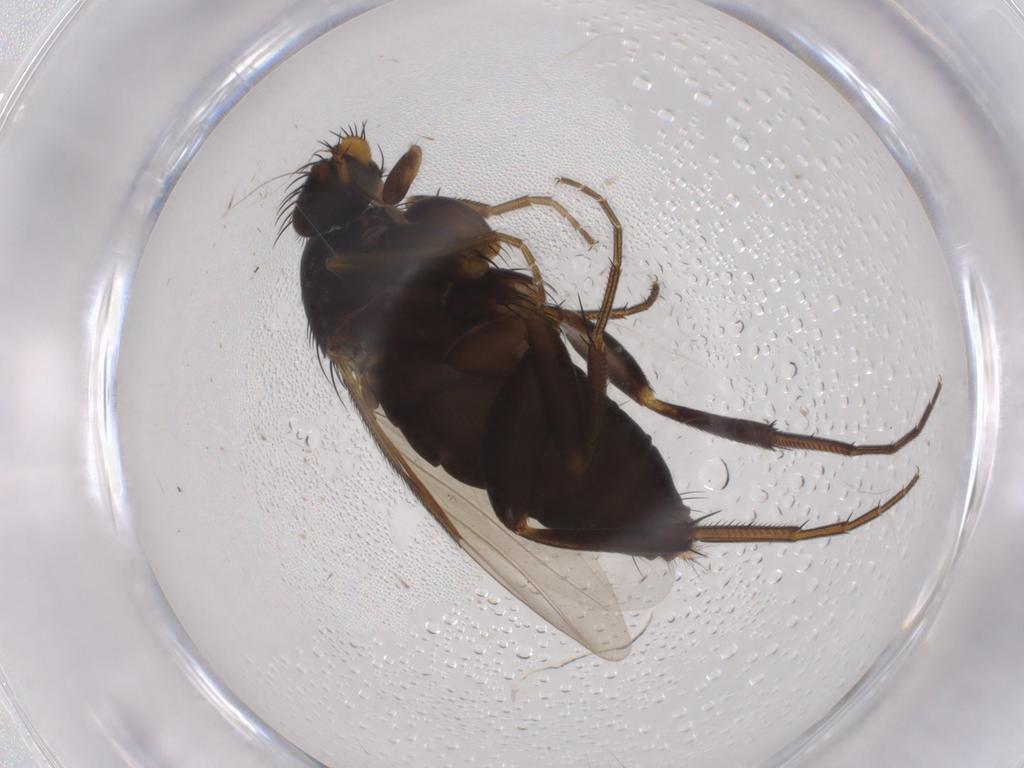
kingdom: Animalia
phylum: Arthropoda
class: Insecta
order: Diptera
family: Phoridae
